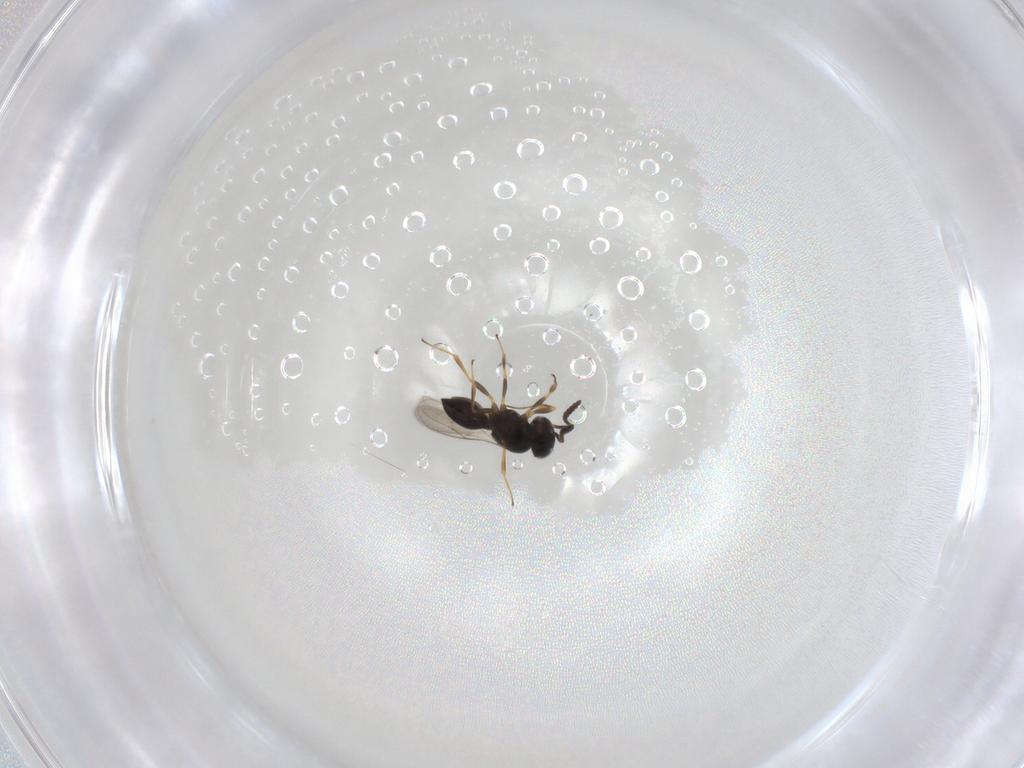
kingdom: Animalia
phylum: Arthropoda
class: Insecta
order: Hymenoptera
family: Scelionidae
